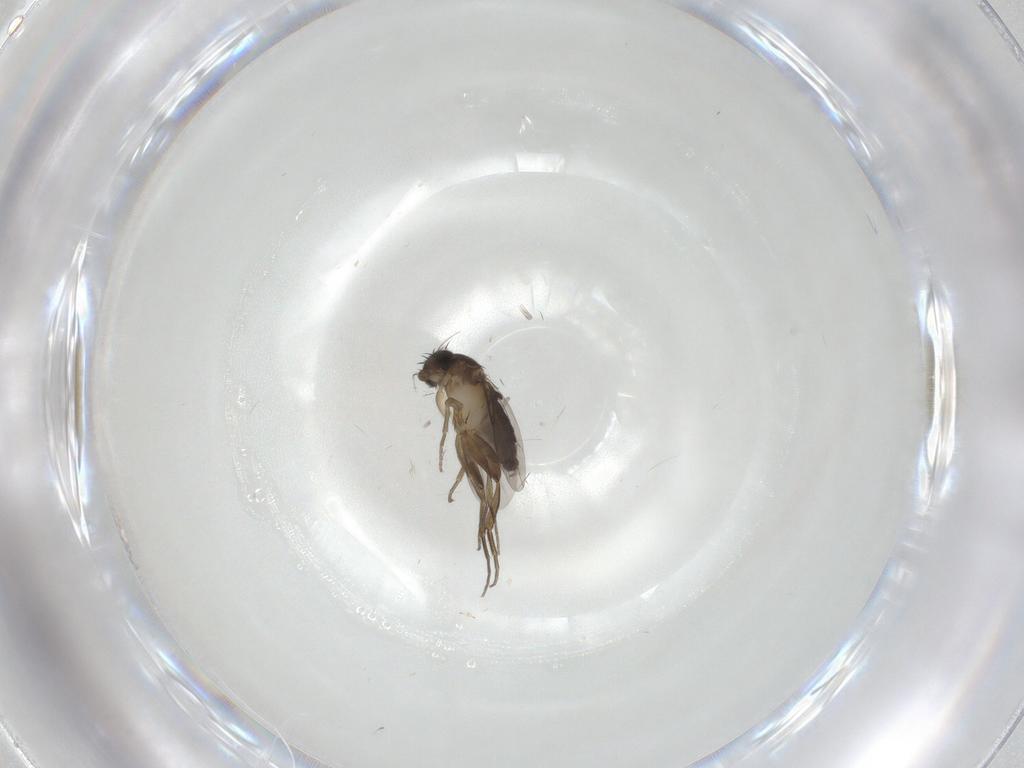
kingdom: Animalia
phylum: Arthropoda
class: Insecta
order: Diptera
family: Phoridae
